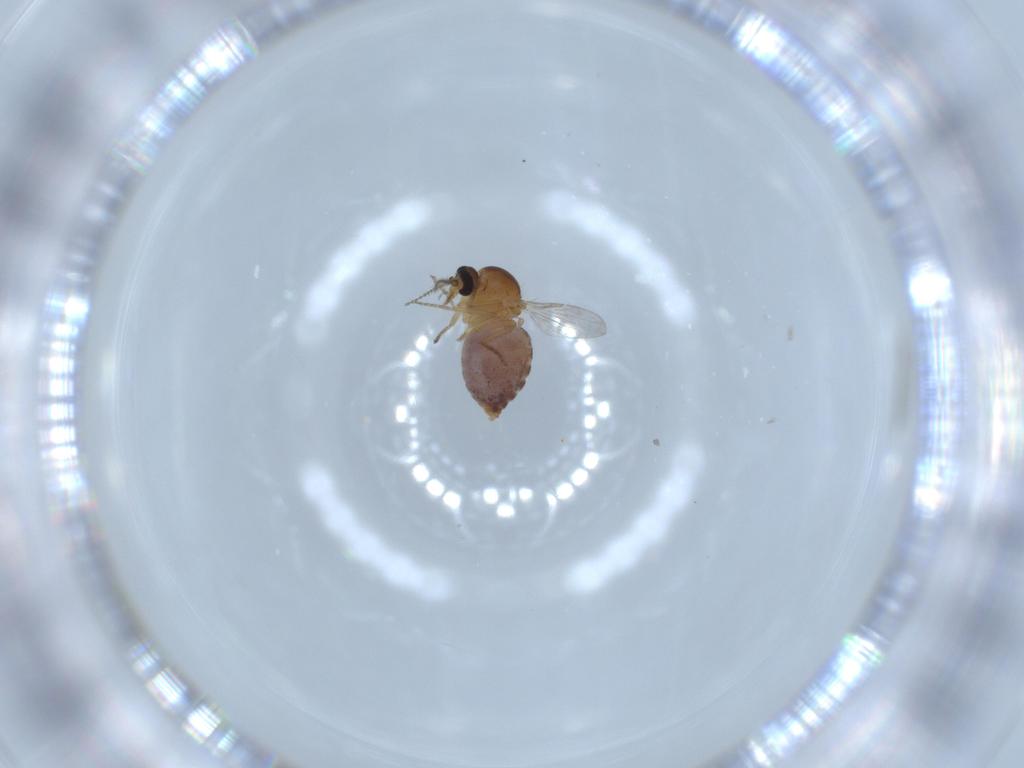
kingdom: Animalia
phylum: Arthropoda
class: Insecta
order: Diptera
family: Ceratopogonidae
